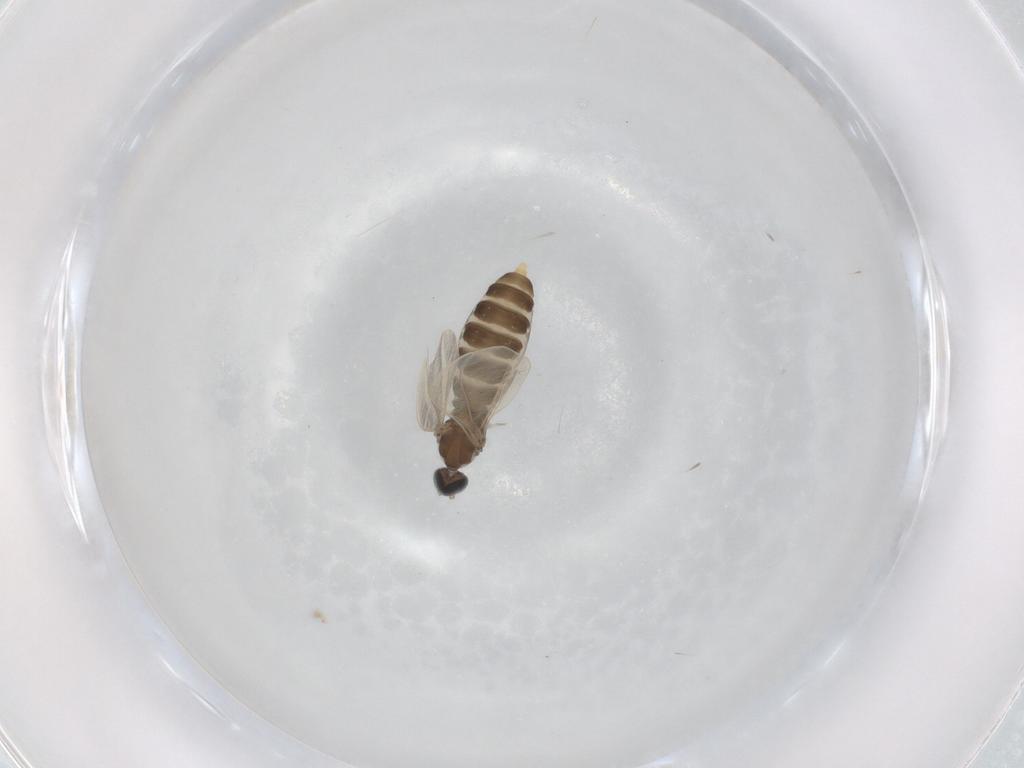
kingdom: Animalia
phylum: Arthropoda
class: Insecta
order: Diptera
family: Cecidomyiidae
